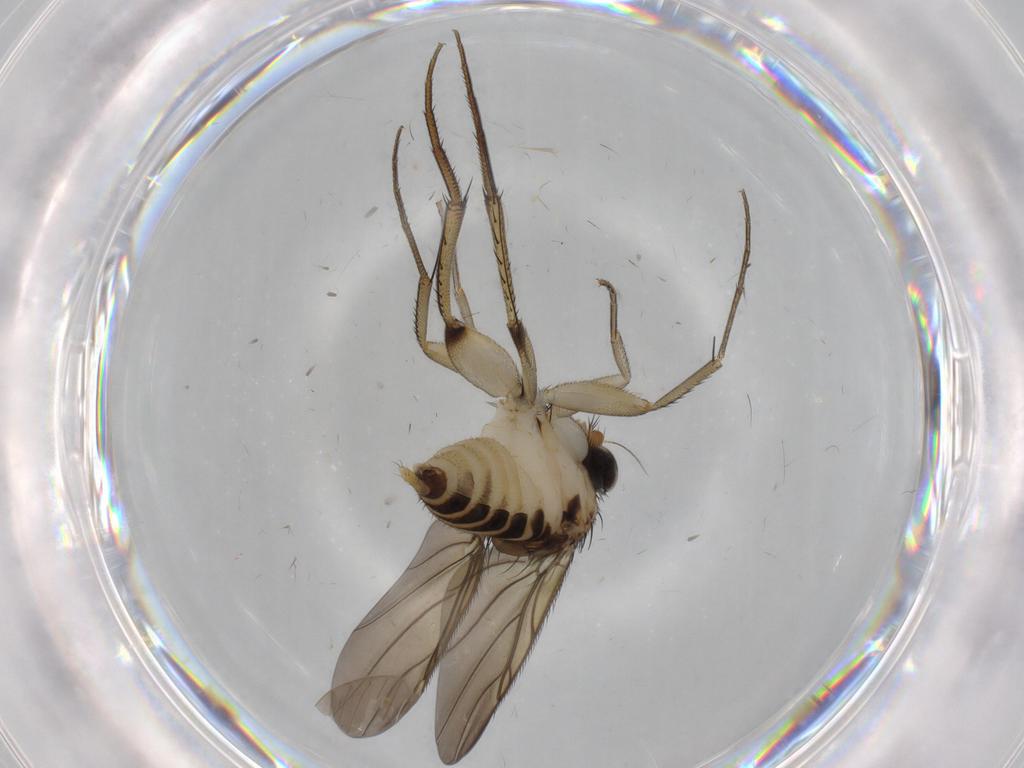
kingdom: Animalia
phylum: Arthropoda
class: Insecta
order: Diptera
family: Limoniidae
